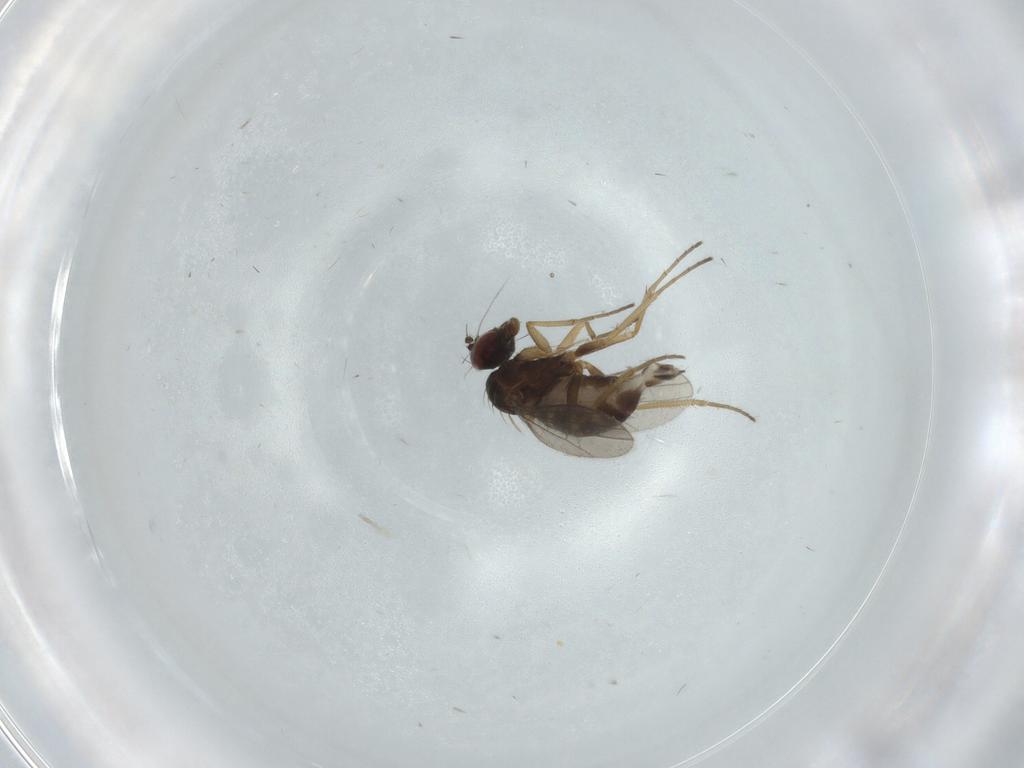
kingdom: Animalia
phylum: Arthropoda
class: Insecta
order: Diptera
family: Dolichopodidae
